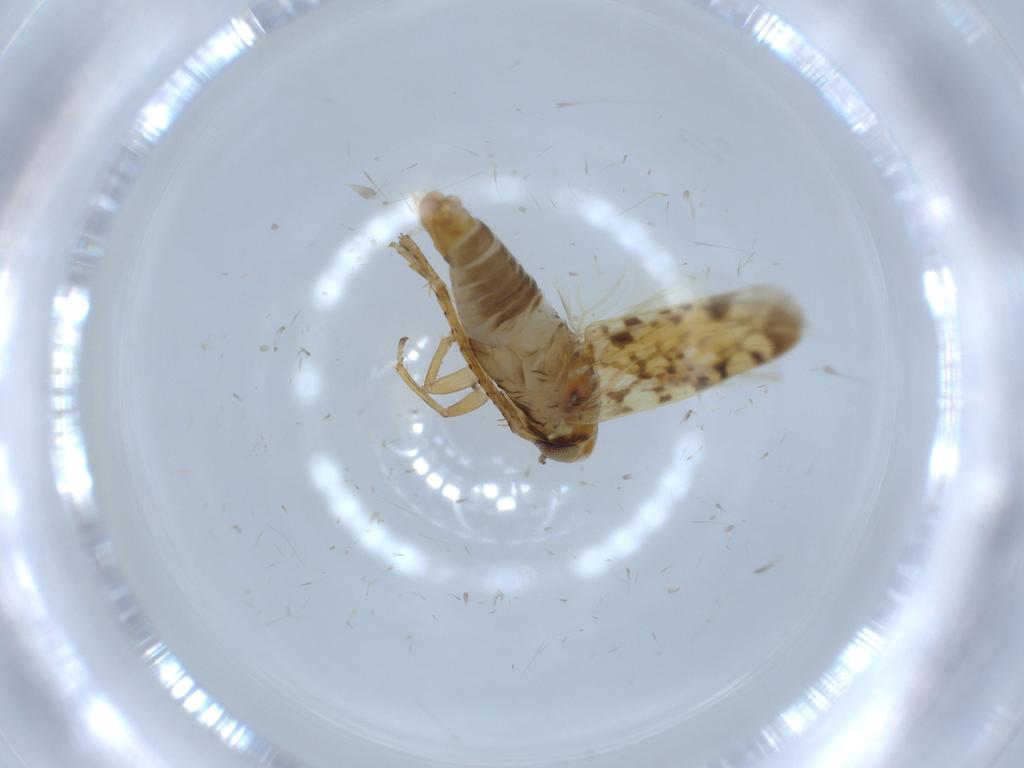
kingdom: Animalia
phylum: Arthropoda
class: Insecta
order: Hemiptera
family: Cicadellidae
